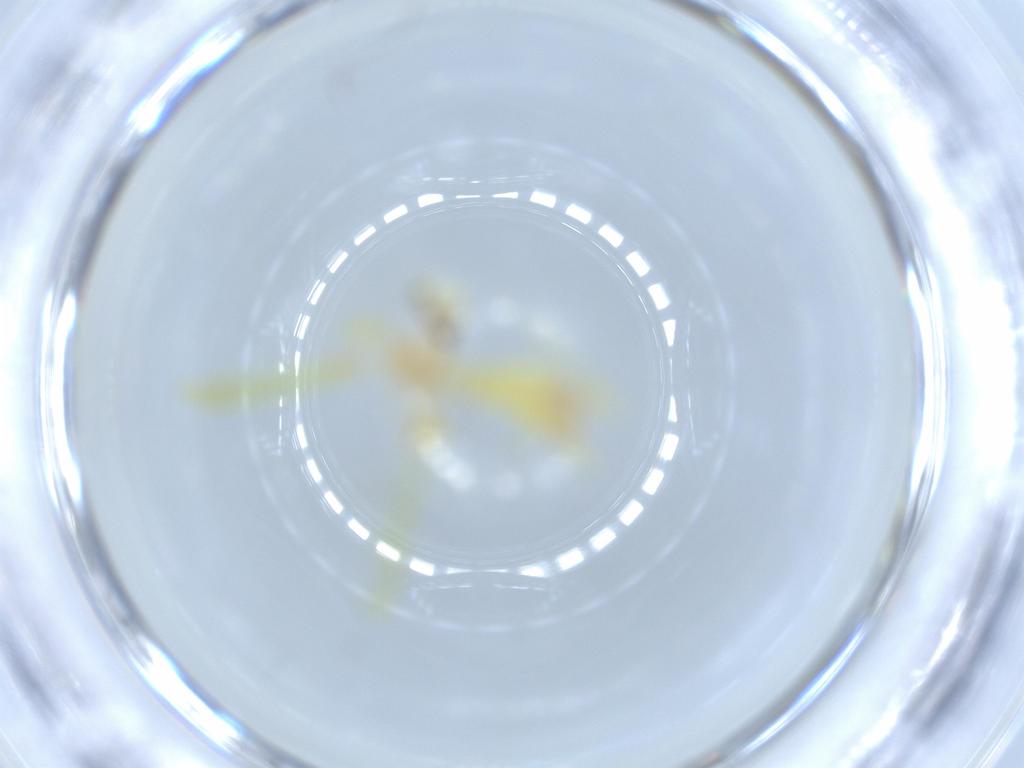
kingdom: Animalia
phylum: Arthropoda
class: Insecta
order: Hemiptera
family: Cicadellidae
